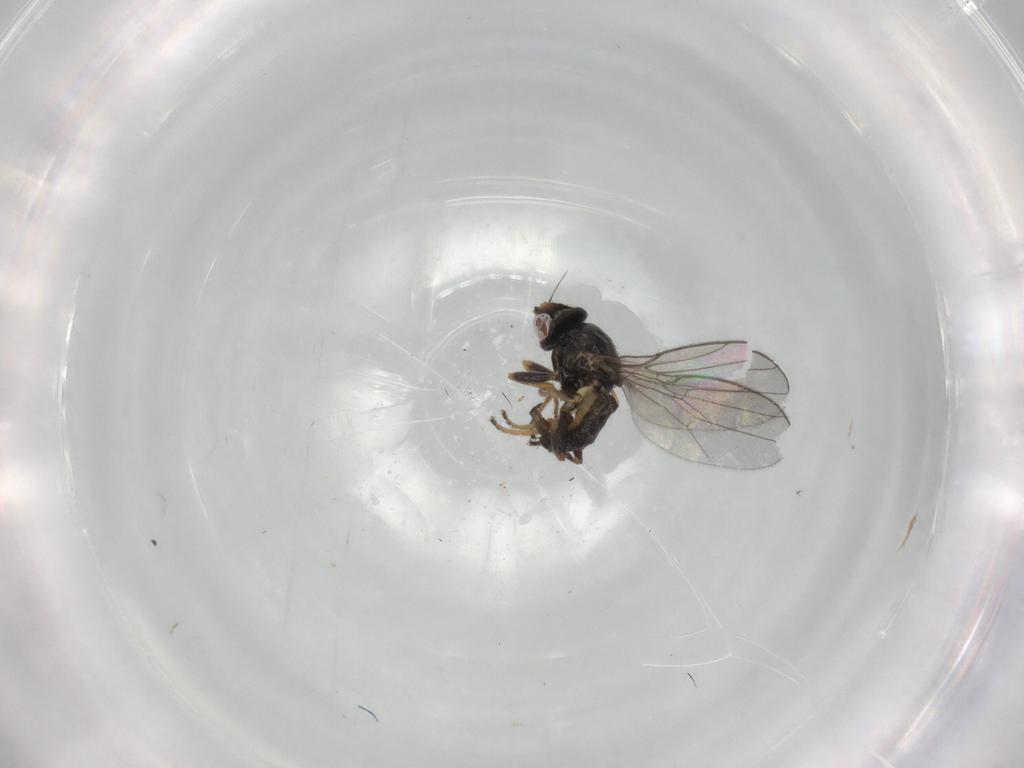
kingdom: Animalia
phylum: Arthropoda
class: Insecta
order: Diptera
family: Chloropidae
